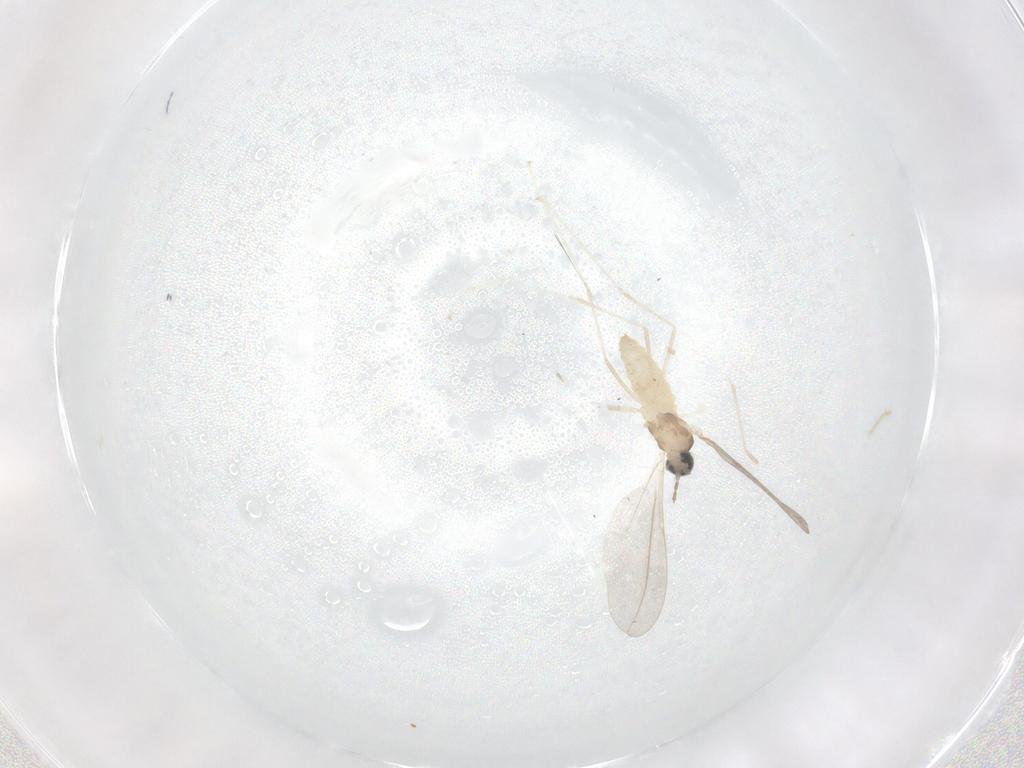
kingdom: Animalia
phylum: Arthropoda
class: Insecta
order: Diptera
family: Cecidomyiidae
